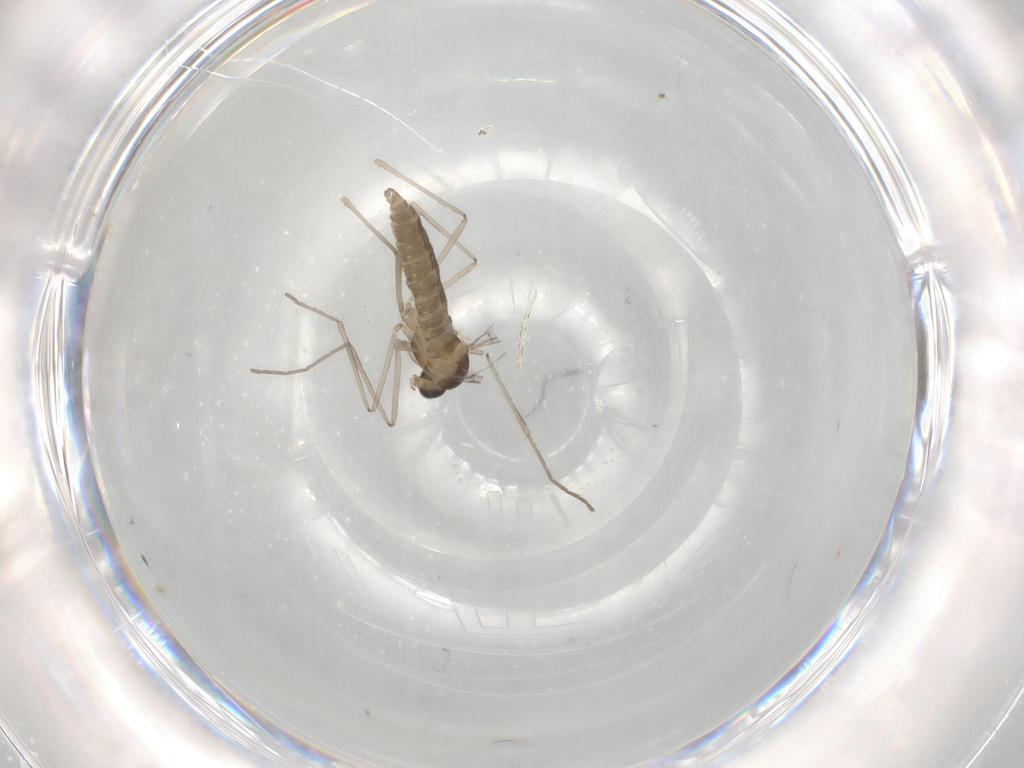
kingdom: Animalia
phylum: Arthropoda
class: Insecta
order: Diptera
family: Cecidomyiidae
